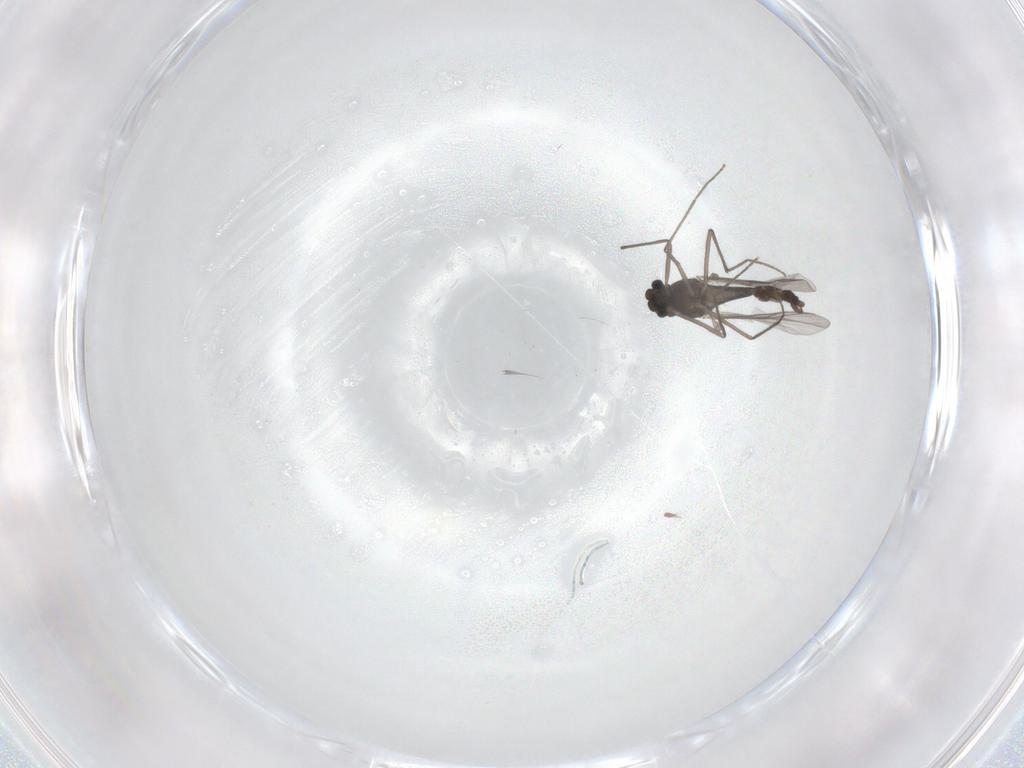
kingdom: Animalia
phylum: Arthropoda
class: Insecta
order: Diptera
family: Chironomidae
